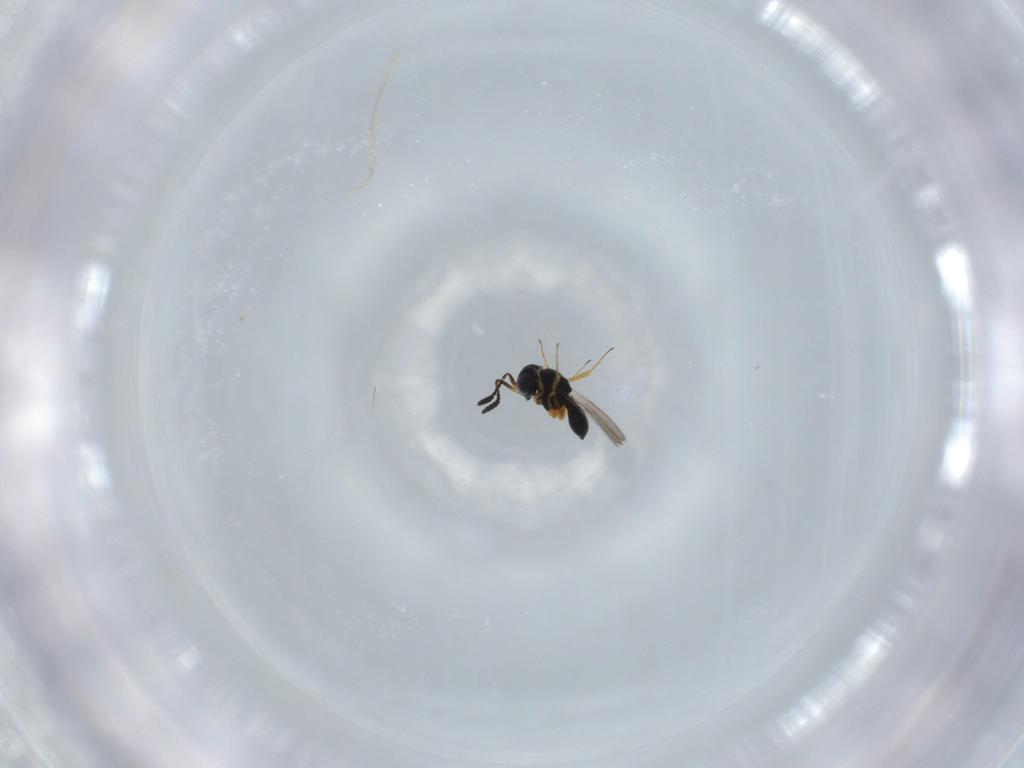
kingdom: Animalia
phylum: Arthropoda
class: Insecta
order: Hymenoptera
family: Scelionidae
